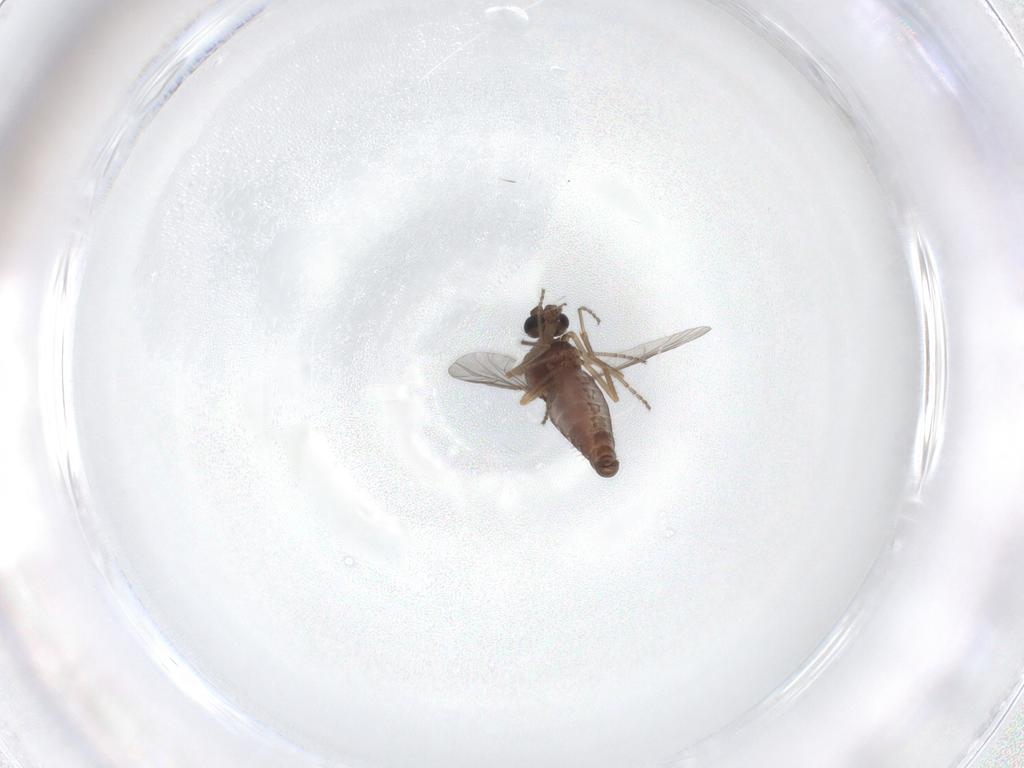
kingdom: Animalia
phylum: Arthropoda
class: Insecta
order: Diptera
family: Ceratopogonidae
